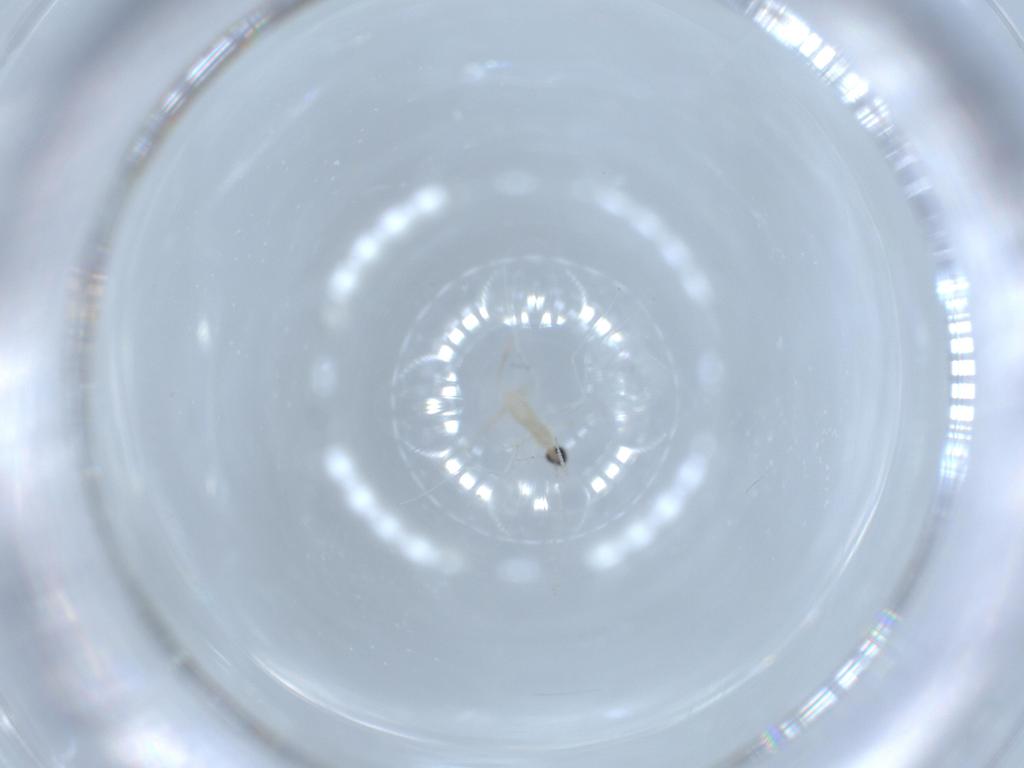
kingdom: Animalia
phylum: Arthropoda
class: Insecta
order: Diptera
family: Cecidomyiidae
